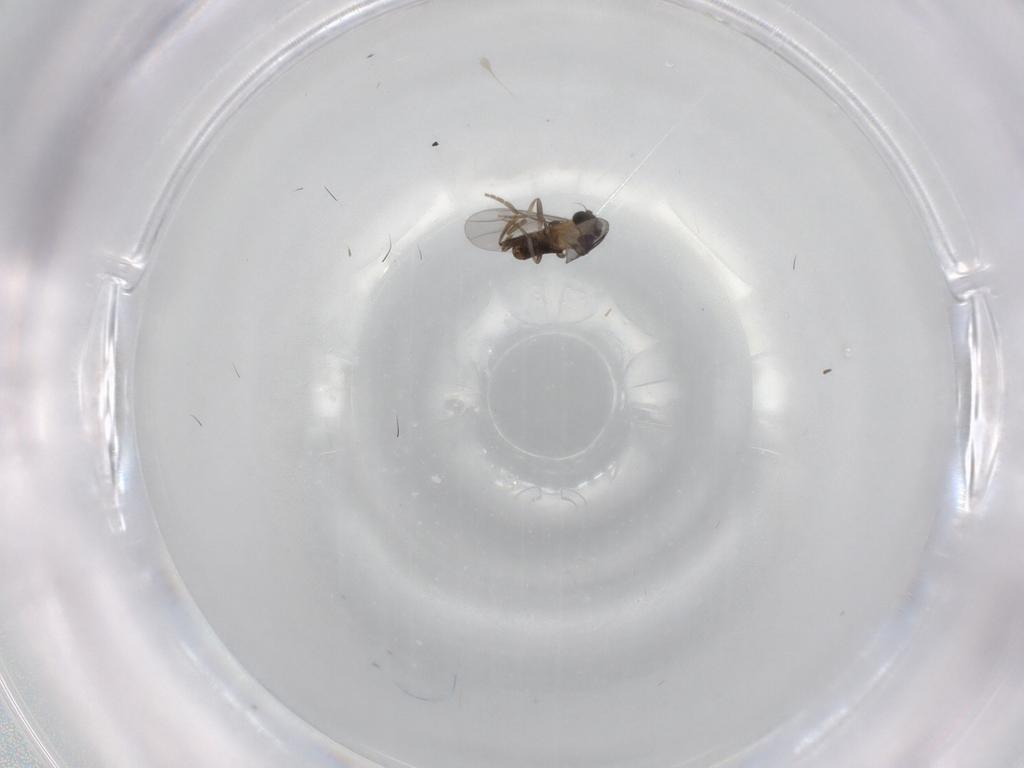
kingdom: Animalia
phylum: Arthropoda
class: Insecta
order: Diptera
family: Sciaridae
